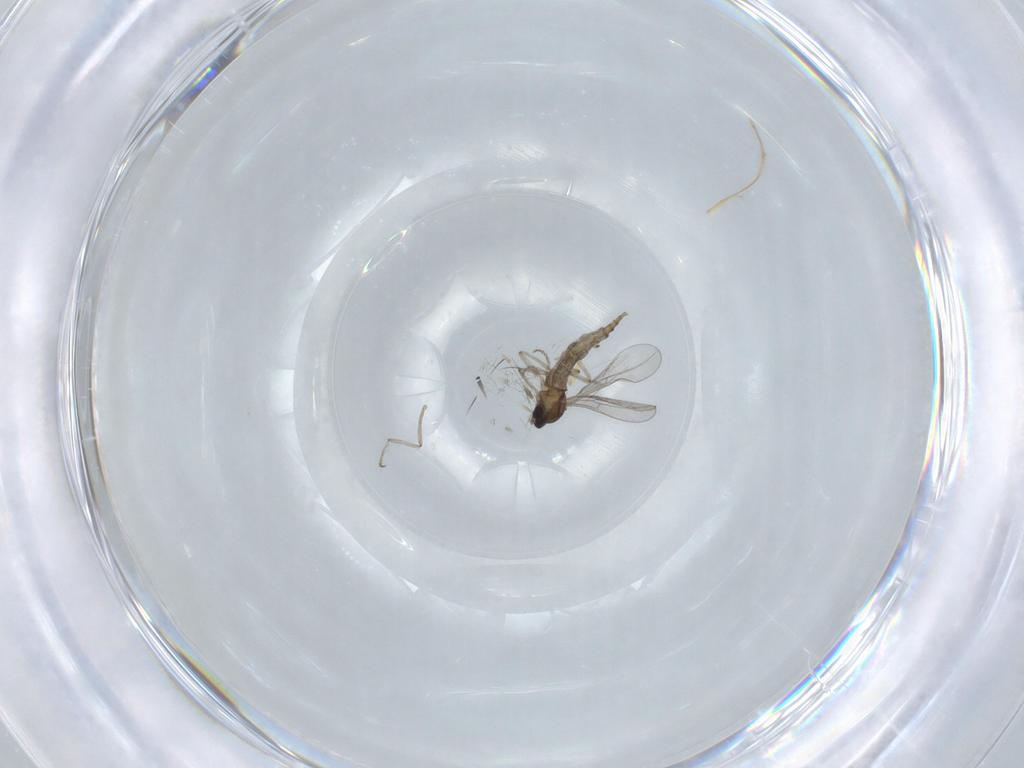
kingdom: Animalia
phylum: Arthropoda
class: Insecta
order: Diptera
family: Cecidomyiidae
